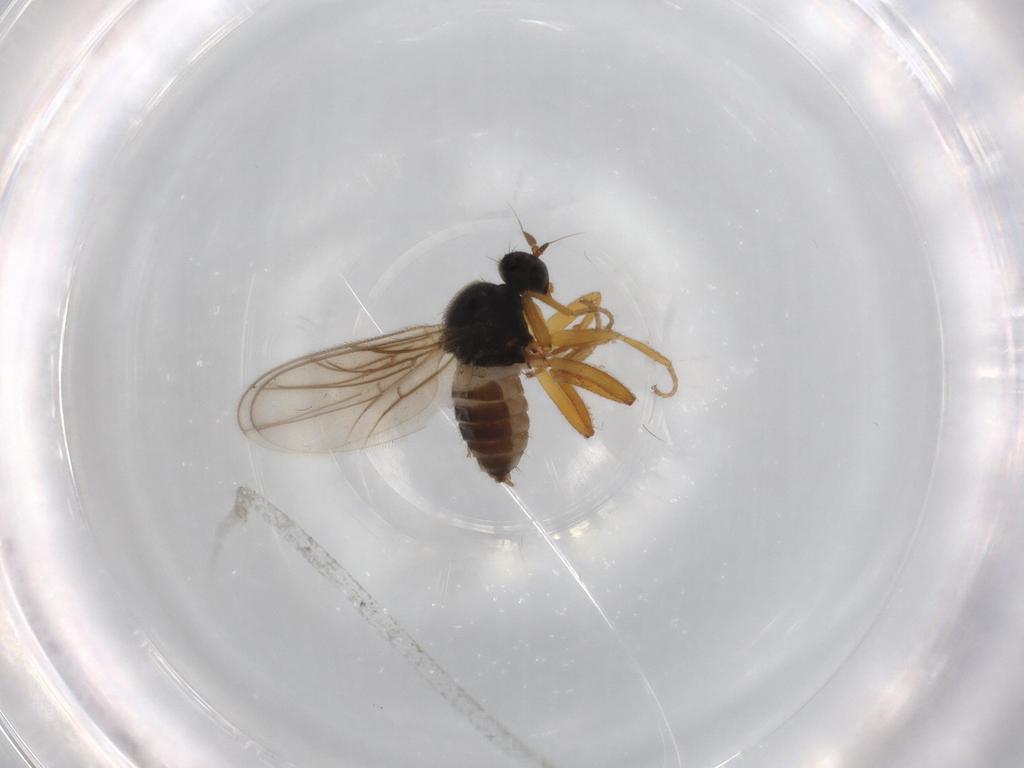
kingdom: Animalia
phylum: Arthropoda
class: Insecta
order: Diptera
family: Hybotidae
